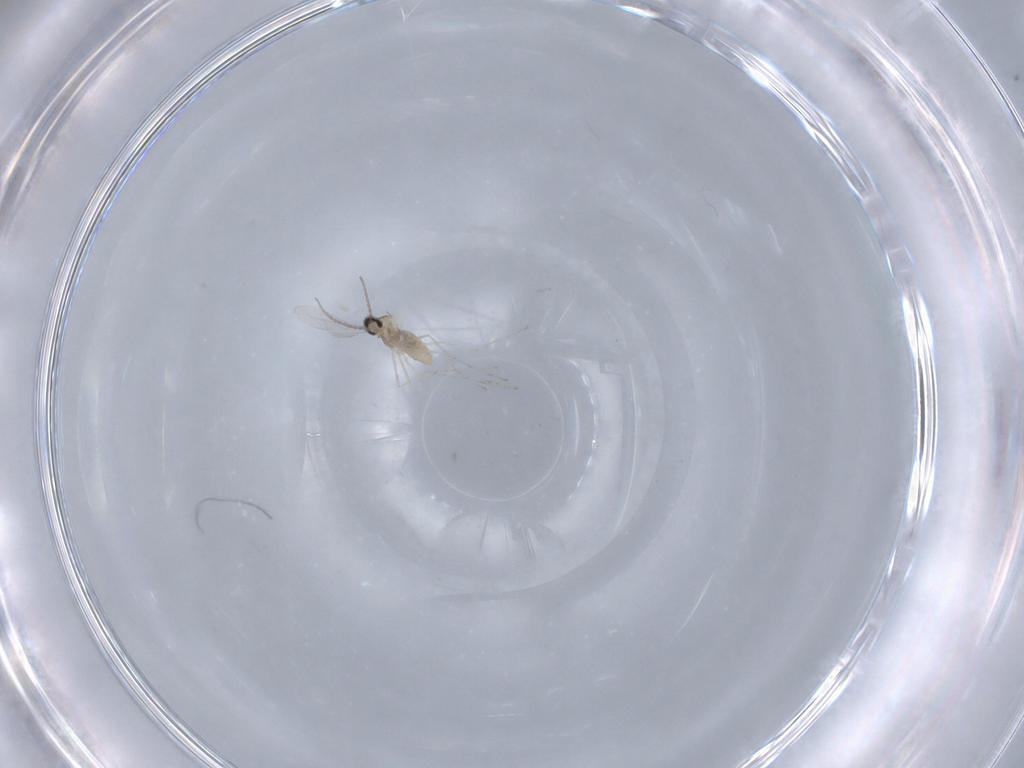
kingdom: Animalia
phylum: Arthropoda
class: Insecta
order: Diptera
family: Cecidomyiidae
